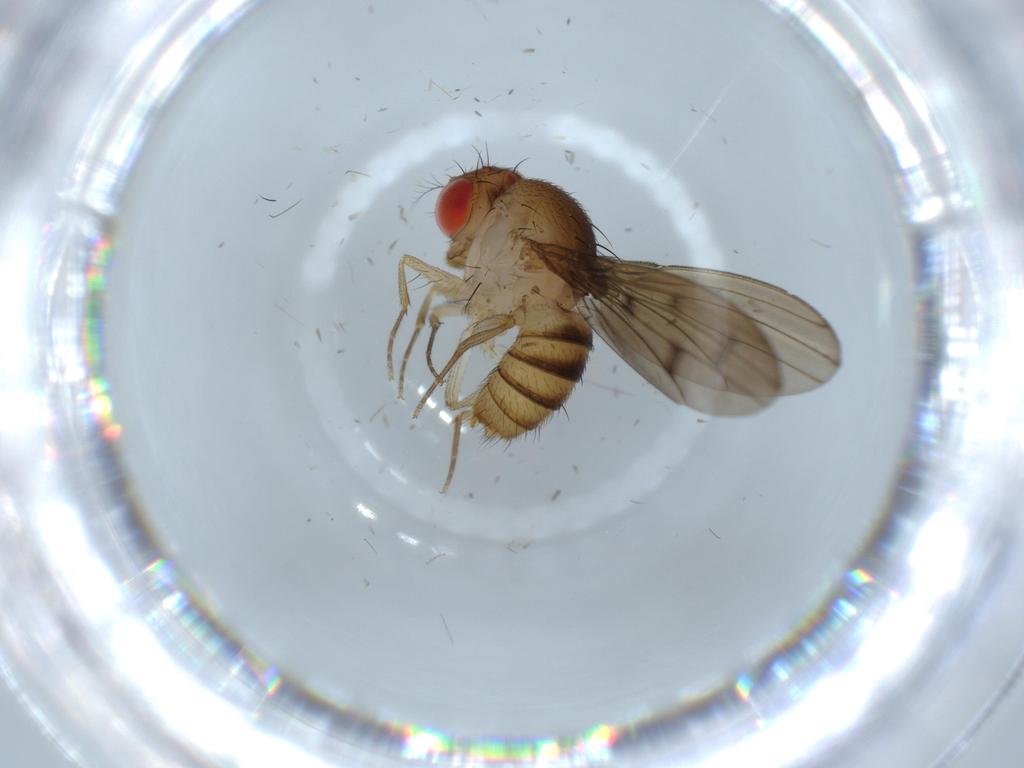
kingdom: Animalia
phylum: Arthropoda
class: Insecta
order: Diptera
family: Drosophilidae
